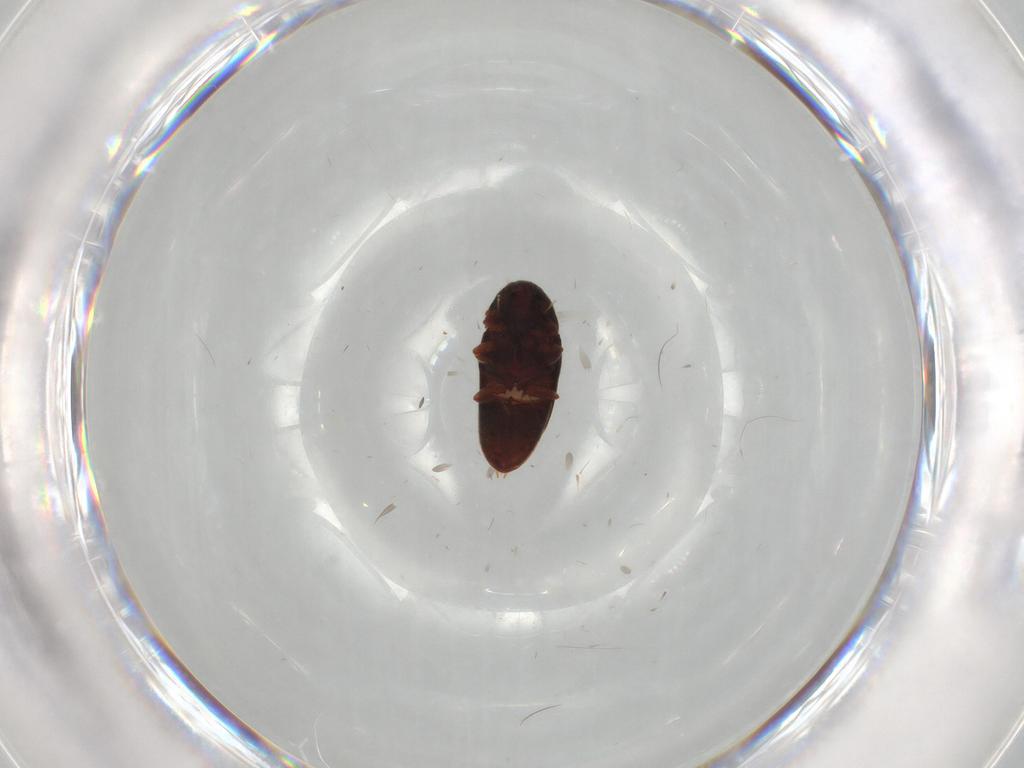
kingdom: Animalia
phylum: Arthropoda
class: Insecta
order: Coleoptera
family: Throscidae
